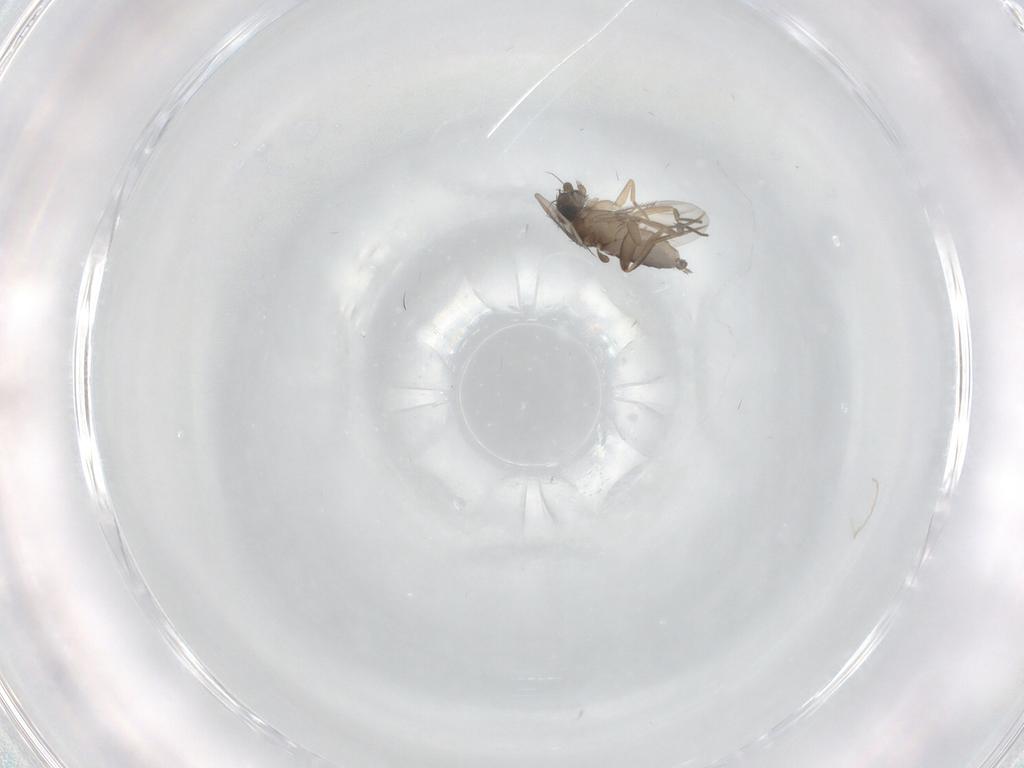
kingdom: Animalia
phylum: Arthropoda
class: Insecta
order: Diptera
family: Phoridae
